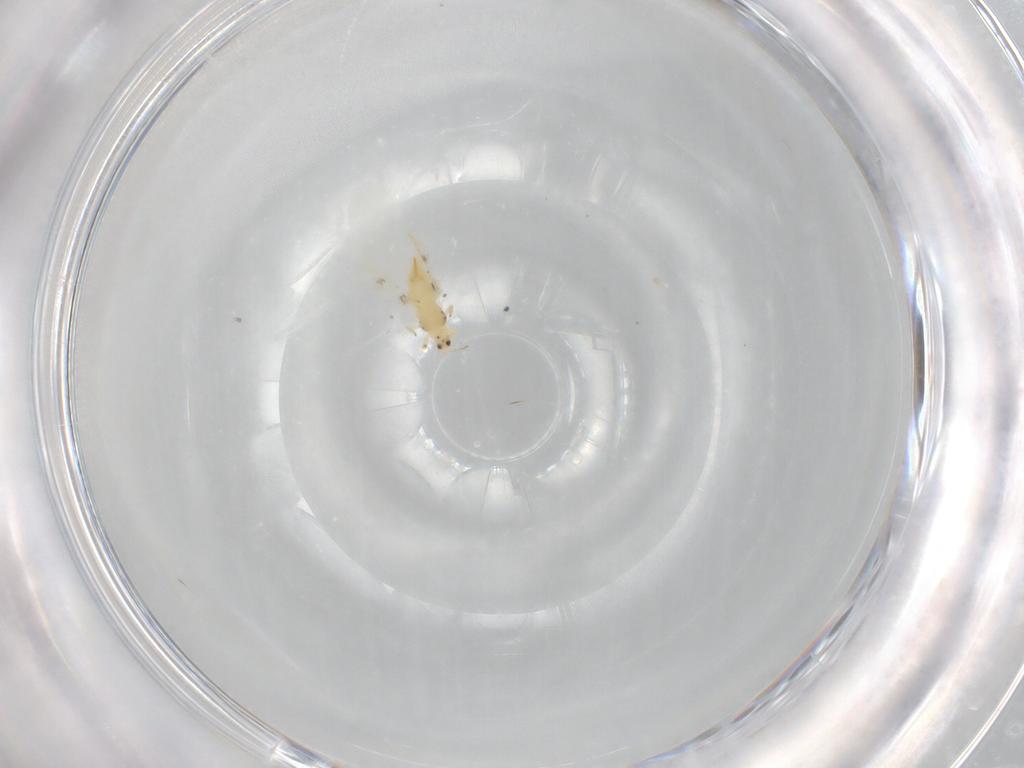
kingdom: Animalia
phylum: Arthropoda
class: Insecta
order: Thysanoptera
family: Thripidae
